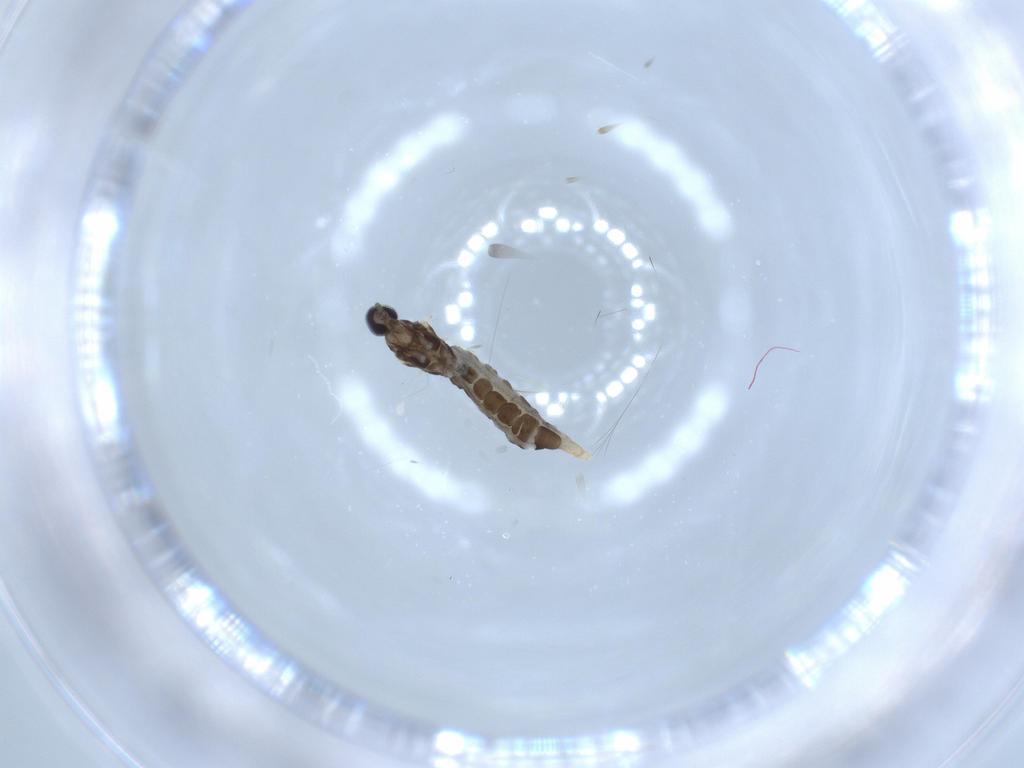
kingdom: Animalia
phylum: Arthropoda
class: Insecta
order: Diptera
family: Cecidomyiidae
